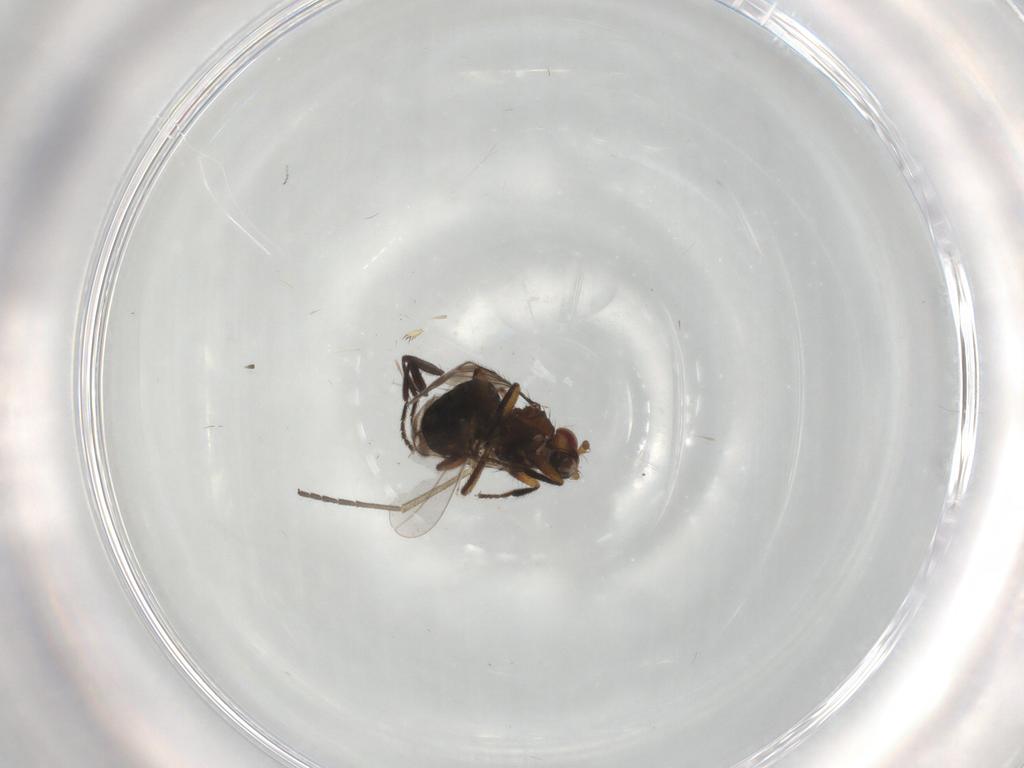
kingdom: Animalia
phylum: Arthropoda
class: Insecta
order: Diptera
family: Sphaeroceridae
